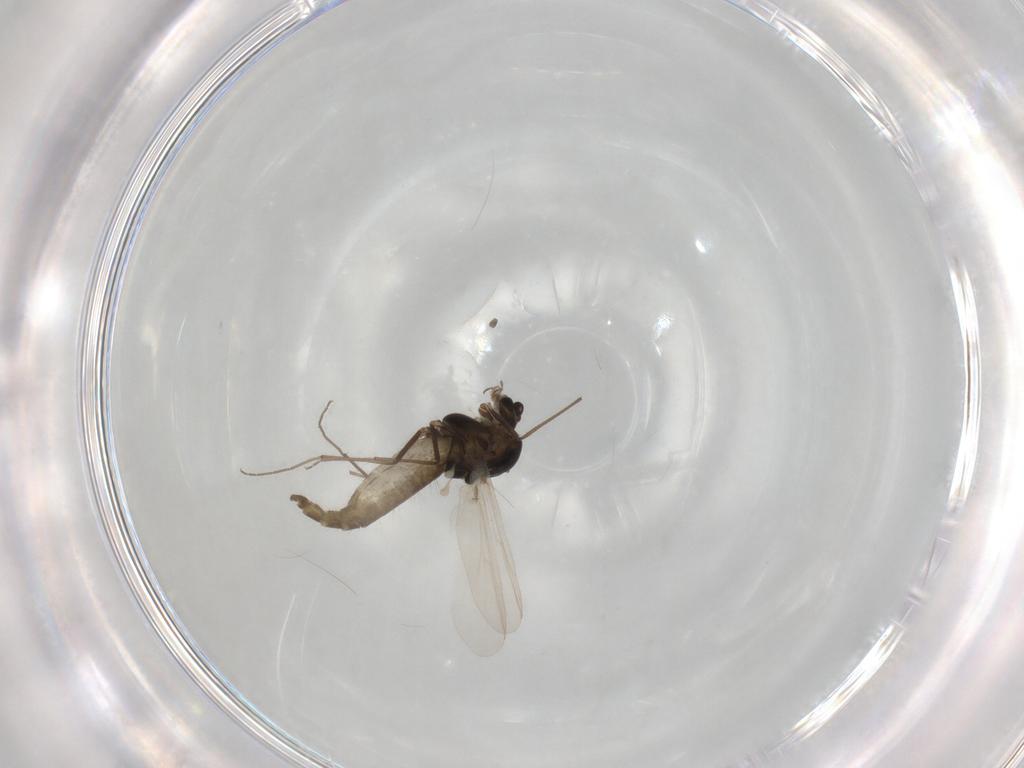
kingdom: Animalia
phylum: Arthropoda
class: Insecta
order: Diptera
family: Chironomidae
